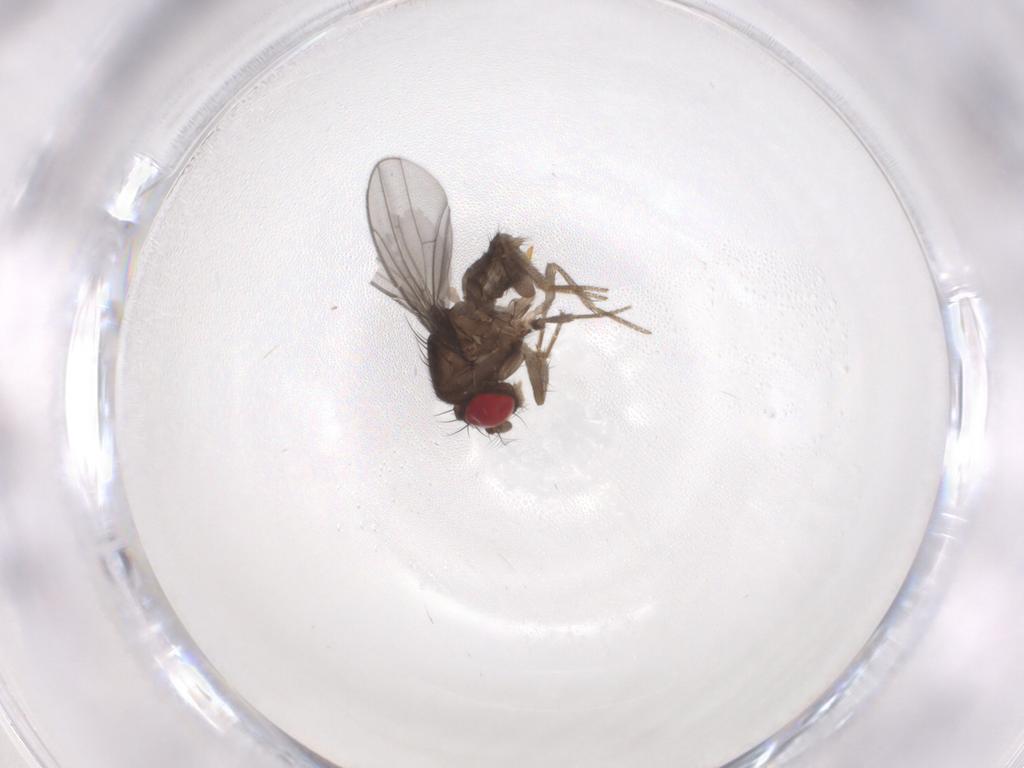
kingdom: Animalia
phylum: Arthropoda
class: Insecta
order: Diptera
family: Drosophilidae
